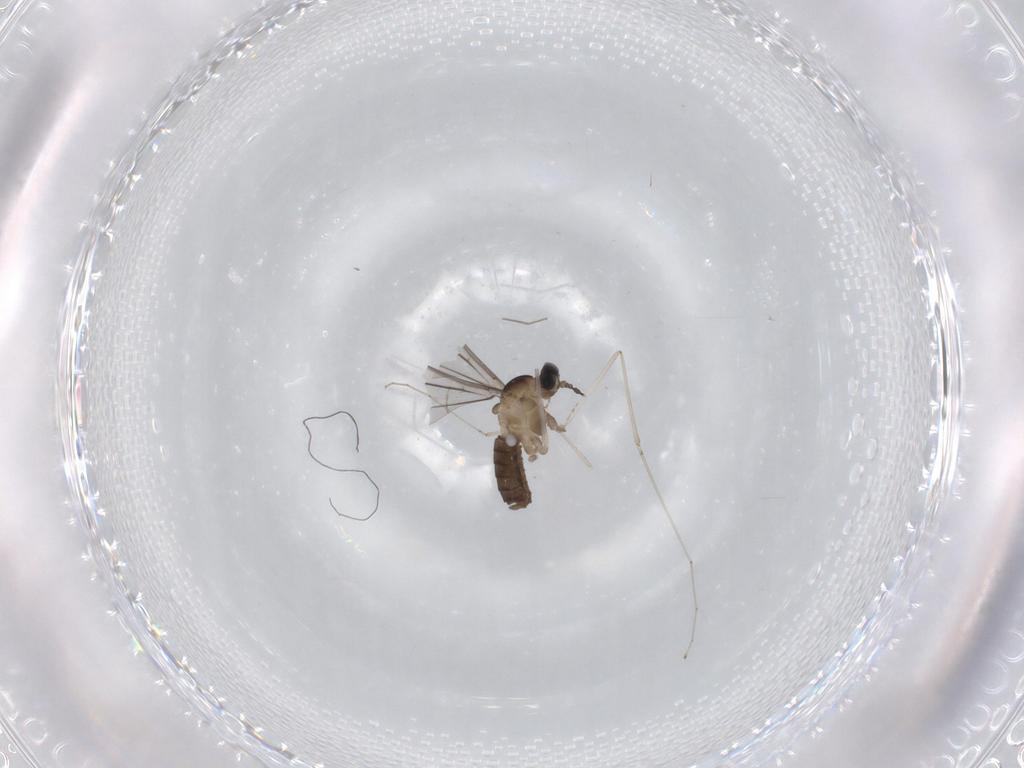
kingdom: Animalia
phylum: Arthropoda
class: Insecta
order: Diptera
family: Cecidomyiidae
